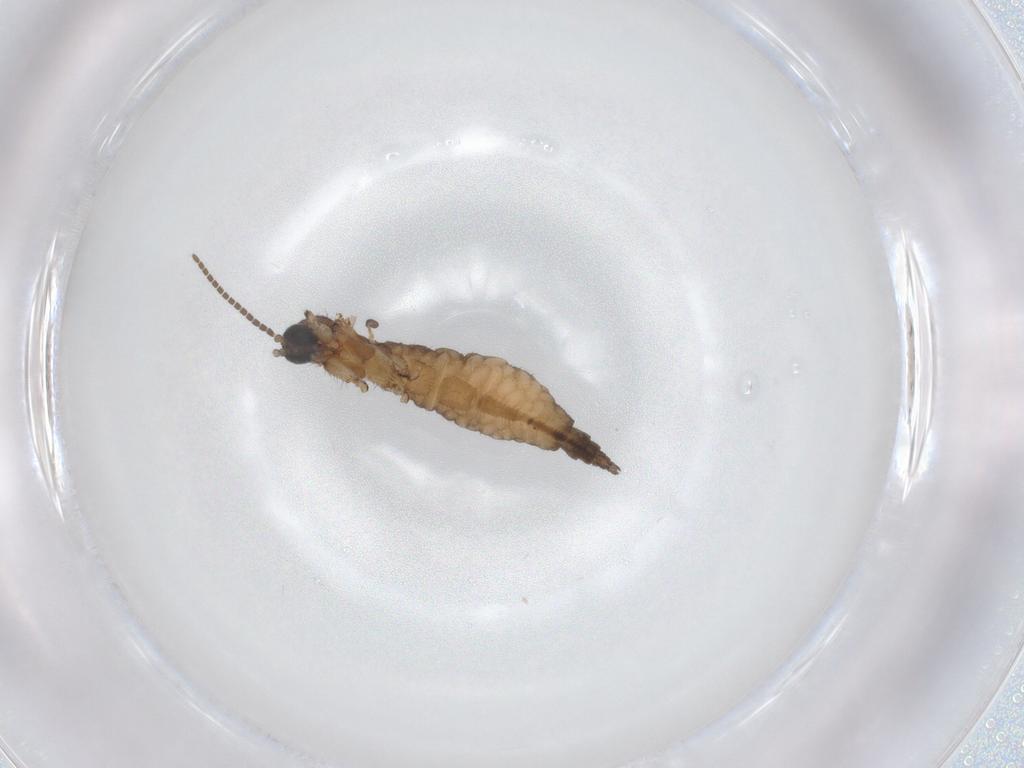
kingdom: Animalia
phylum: Arthropoda
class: Insecta
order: Diptera
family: Sciaridae
